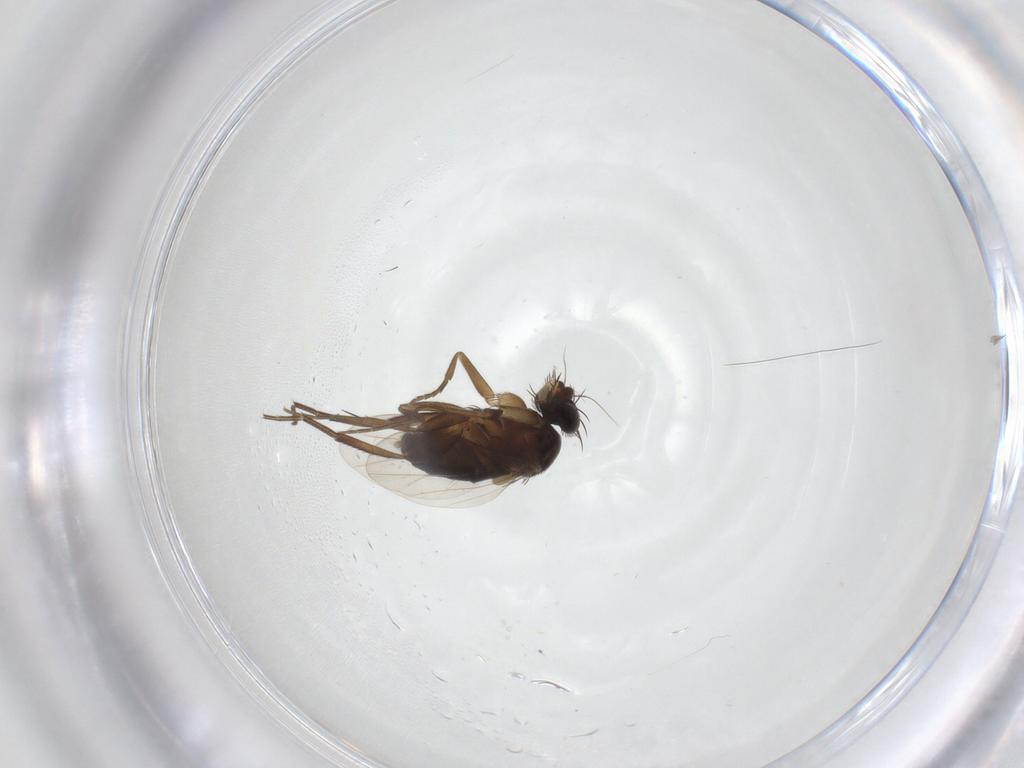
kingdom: Animalia
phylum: Arthropoda
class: Insecta
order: Diptera
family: Phoridae
